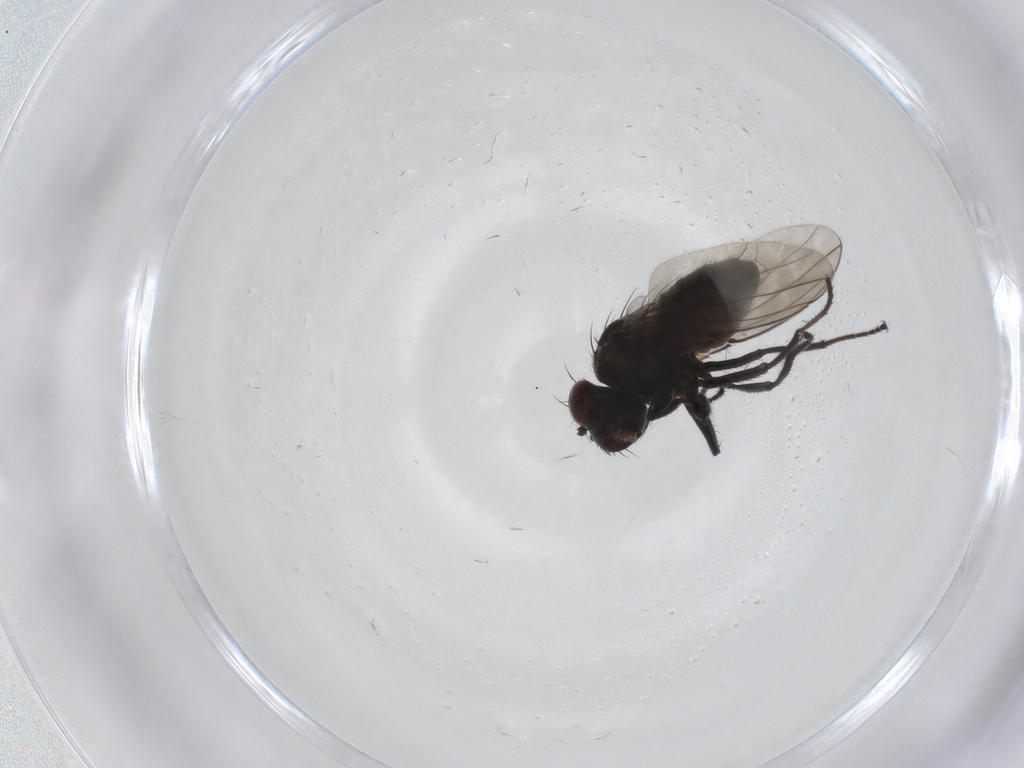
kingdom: Animalia
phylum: Arthropoda
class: Insecta
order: Diptera
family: Ephydridae
